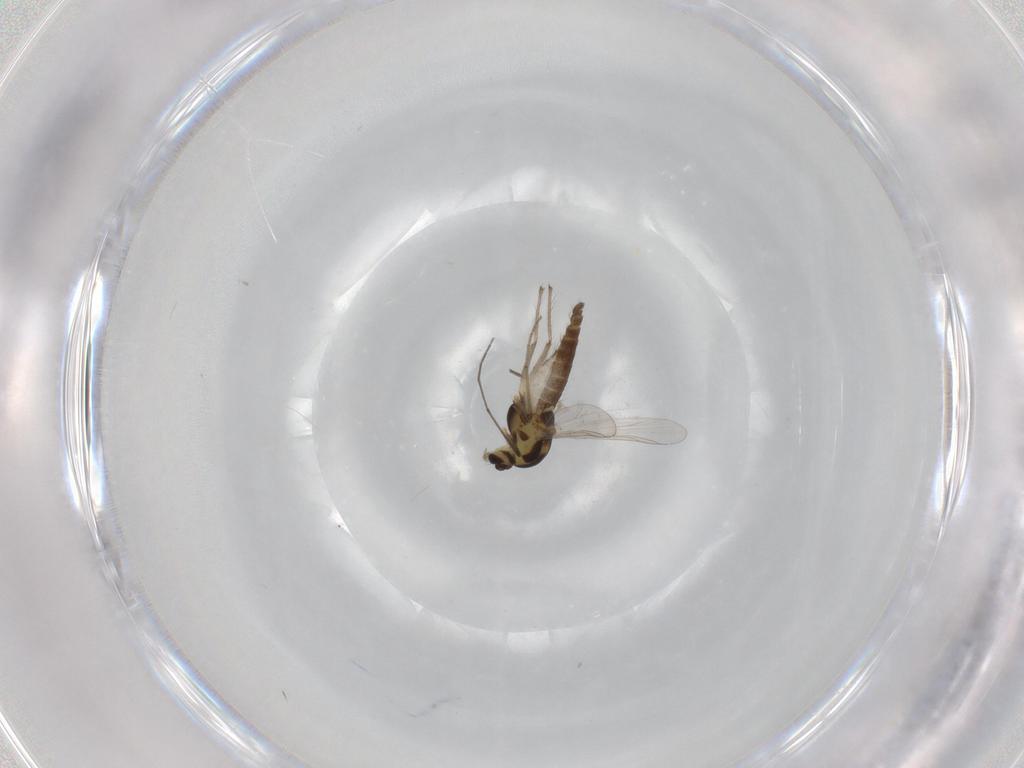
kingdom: Animalia
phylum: Arthropoda
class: Insecta
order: Diptera
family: Chironomidae
